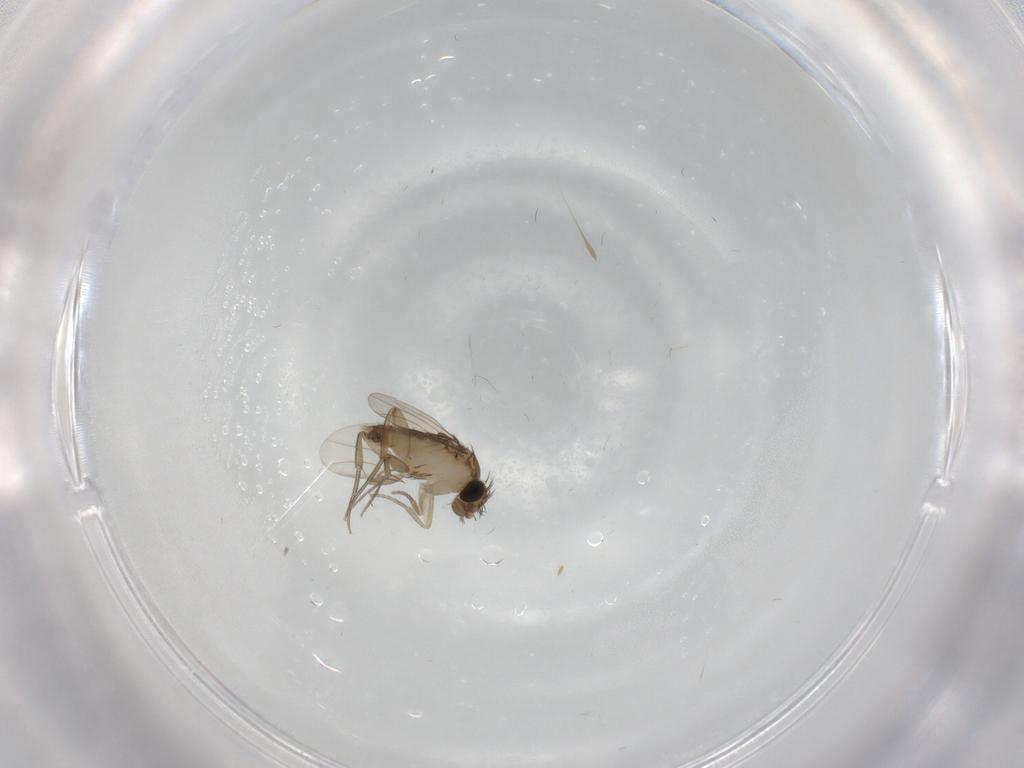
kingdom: Animalia
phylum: Arthropoda
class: Insecta
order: Diptera
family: Phoridae
